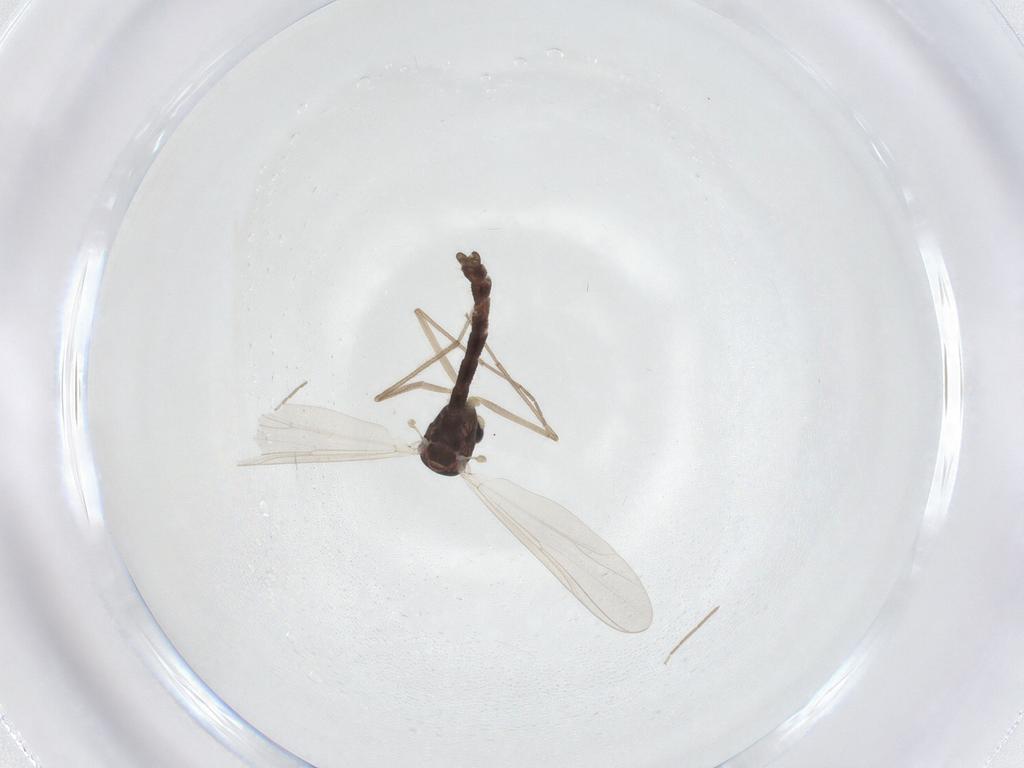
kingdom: Animalia
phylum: Arthropoda
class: Insecta
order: Diptera
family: Chironomidae
